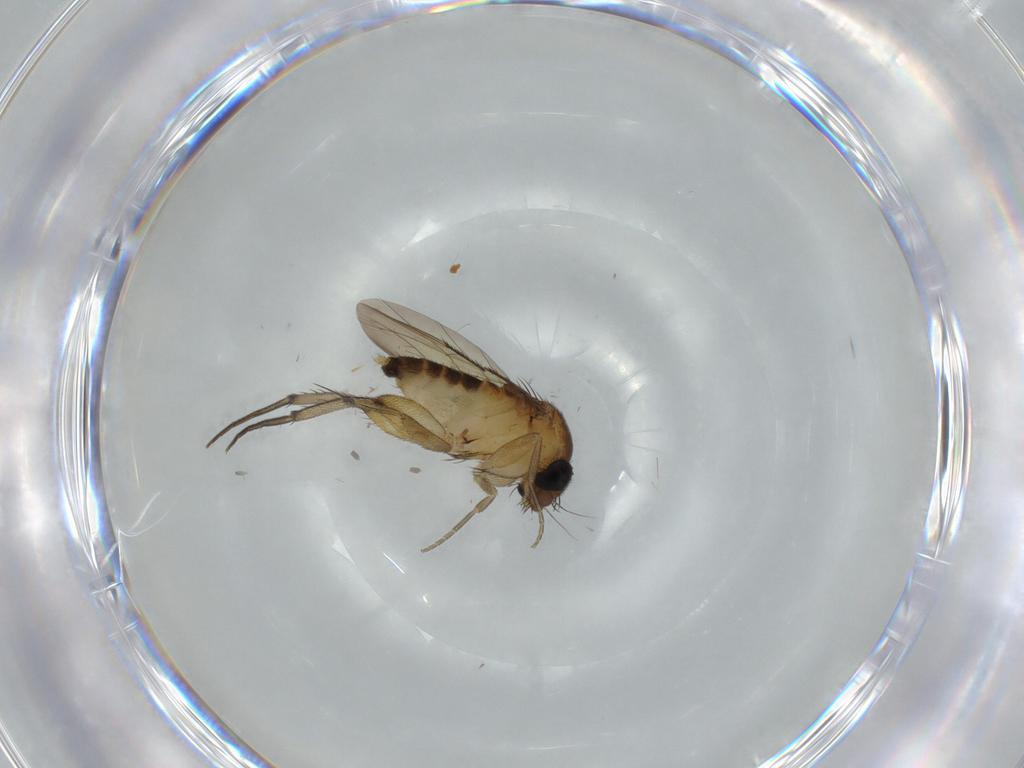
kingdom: Animalia
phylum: Arthropoda
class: Insecta
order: Diptera
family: Phoridae
